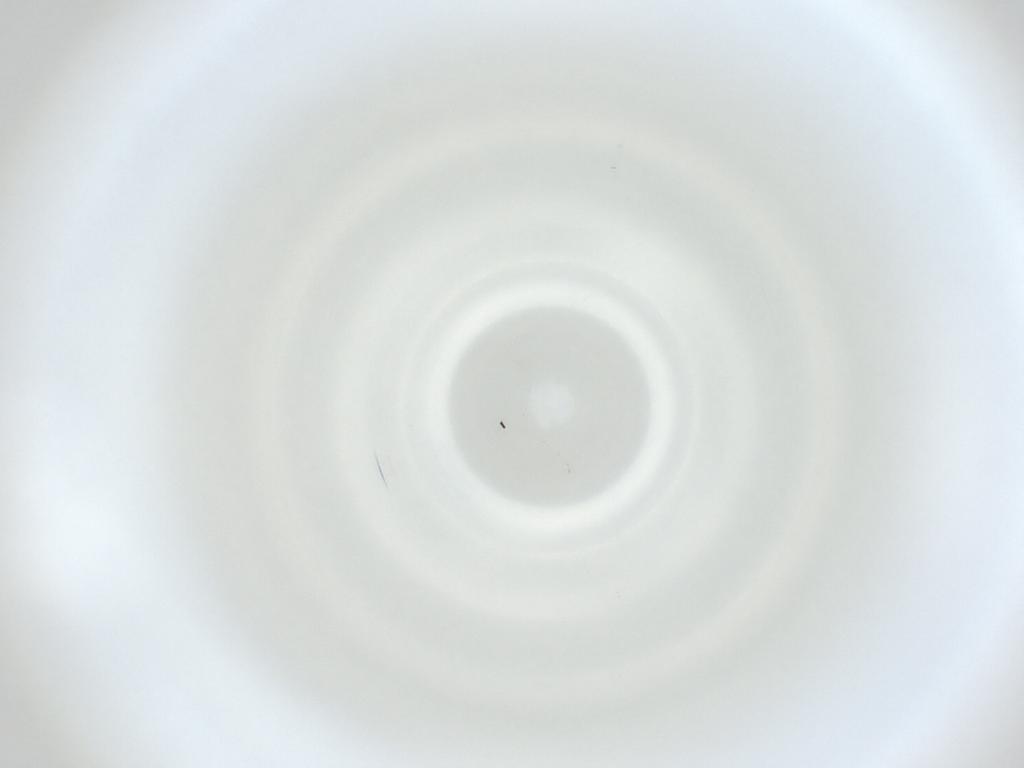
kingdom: Animalia
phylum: Arthropoda
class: Insecta
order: Diptera
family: Cecidomyiidae
